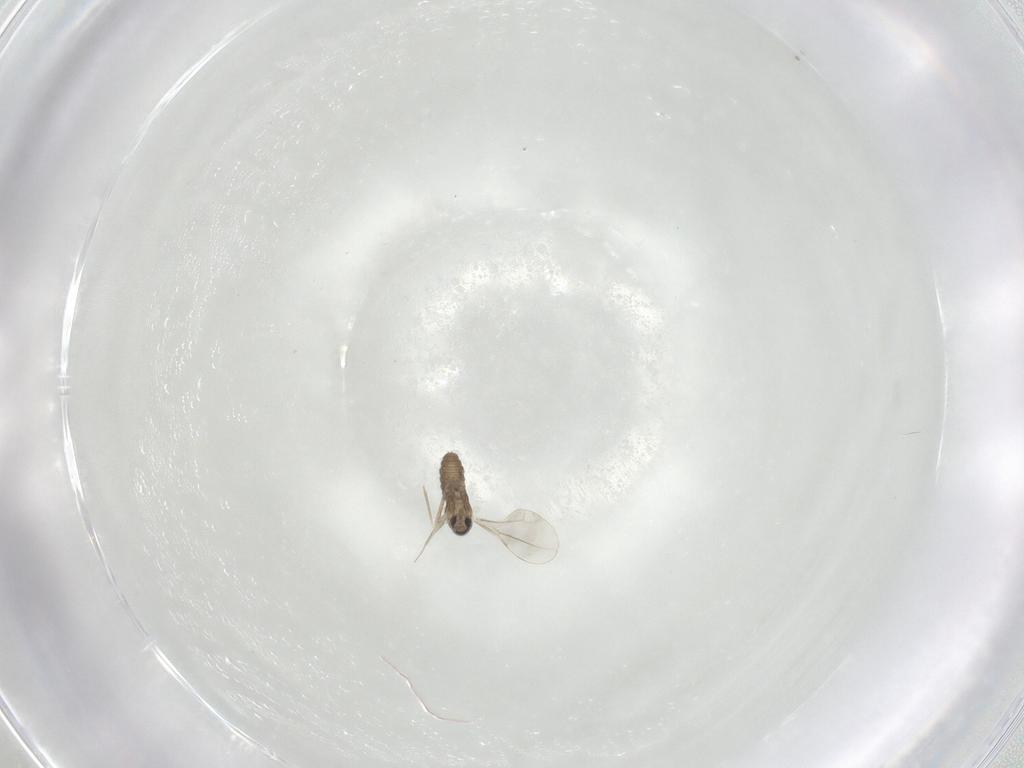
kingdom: Animalia
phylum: Arthropoda
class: Insecta
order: Diptera
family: Cecidomyiidae
